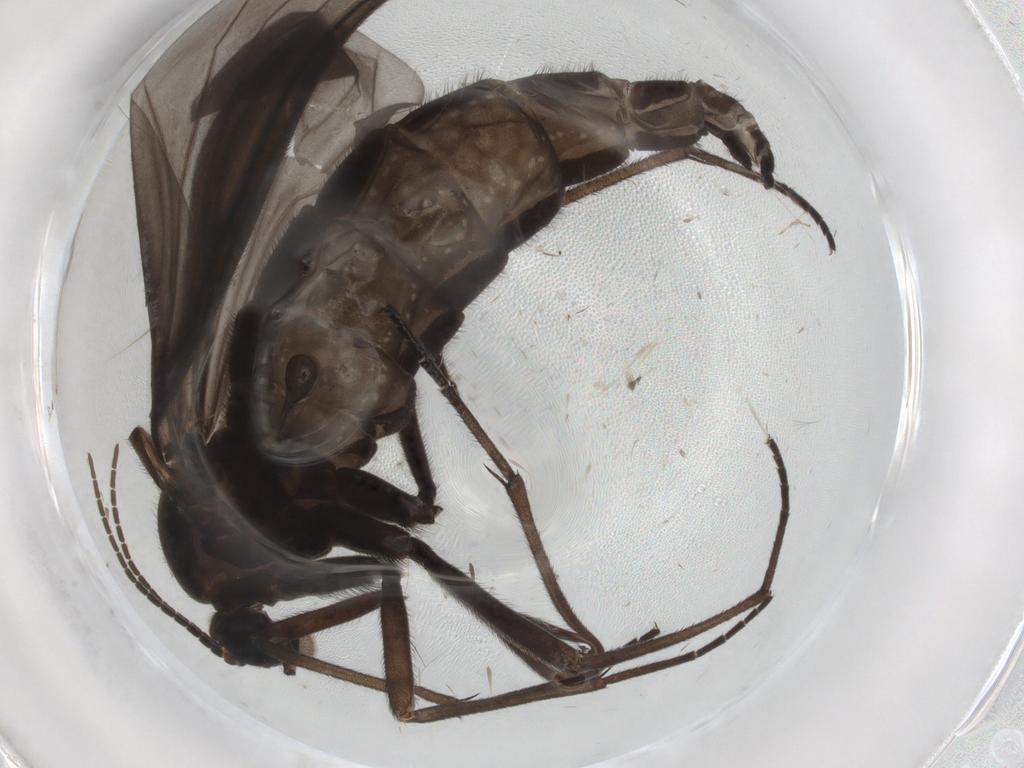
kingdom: Animalia
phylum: Arthropoda
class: Insecta
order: Diptera
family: Sciaridae
